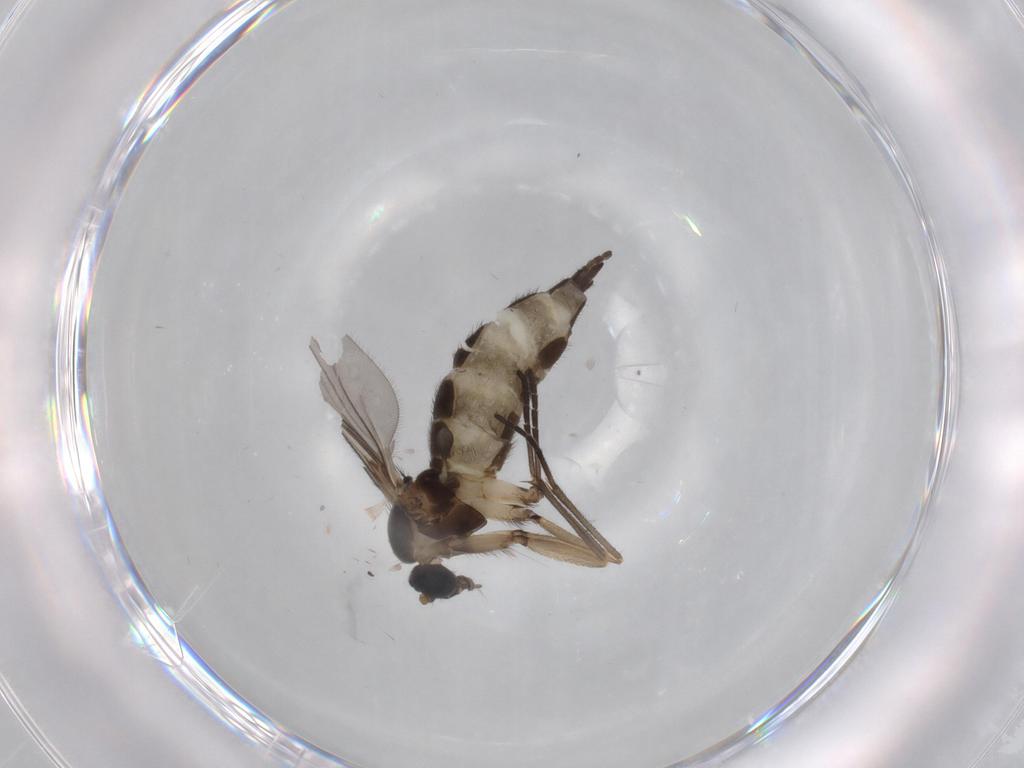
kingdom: Animalia
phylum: Arthropoda
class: Insecta
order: Diptera
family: Sciaridae
